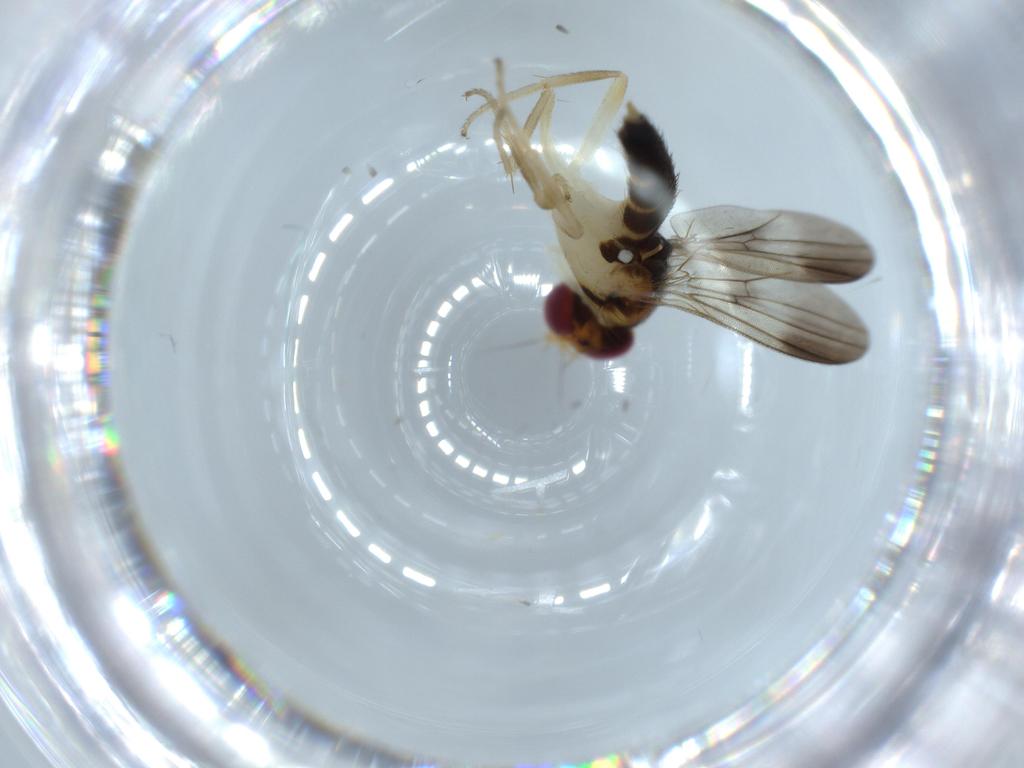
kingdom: Animalia
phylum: Arthropoda
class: Insecta
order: Diptera
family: Clusiidae
